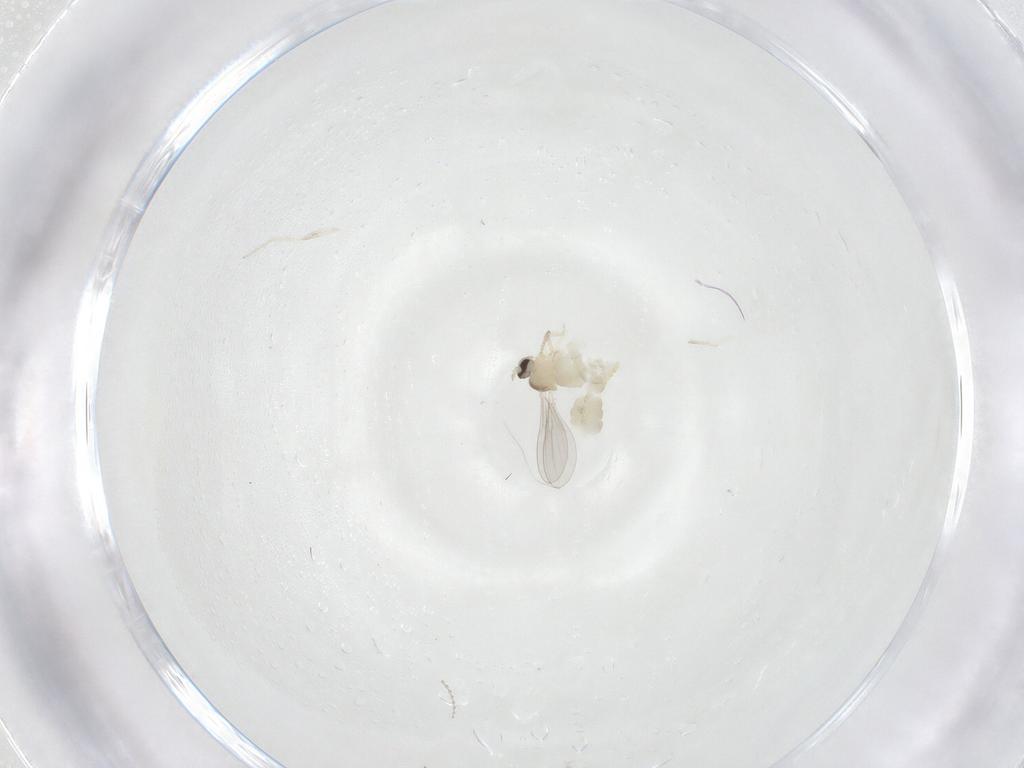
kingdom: Animalia
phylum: Arthropoda
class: Insecta
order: Diptera
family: Cecidomyiidae
